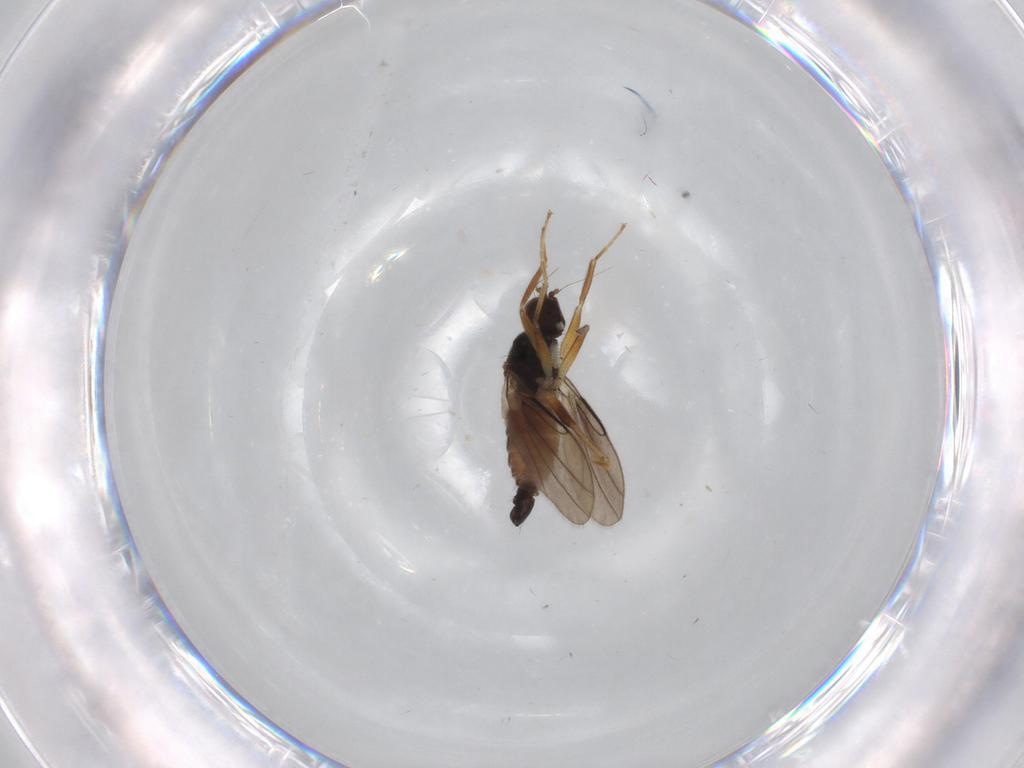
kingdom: Animalia
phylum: Arthropoda
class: Insecta
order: Diptera
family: Hybotidae
